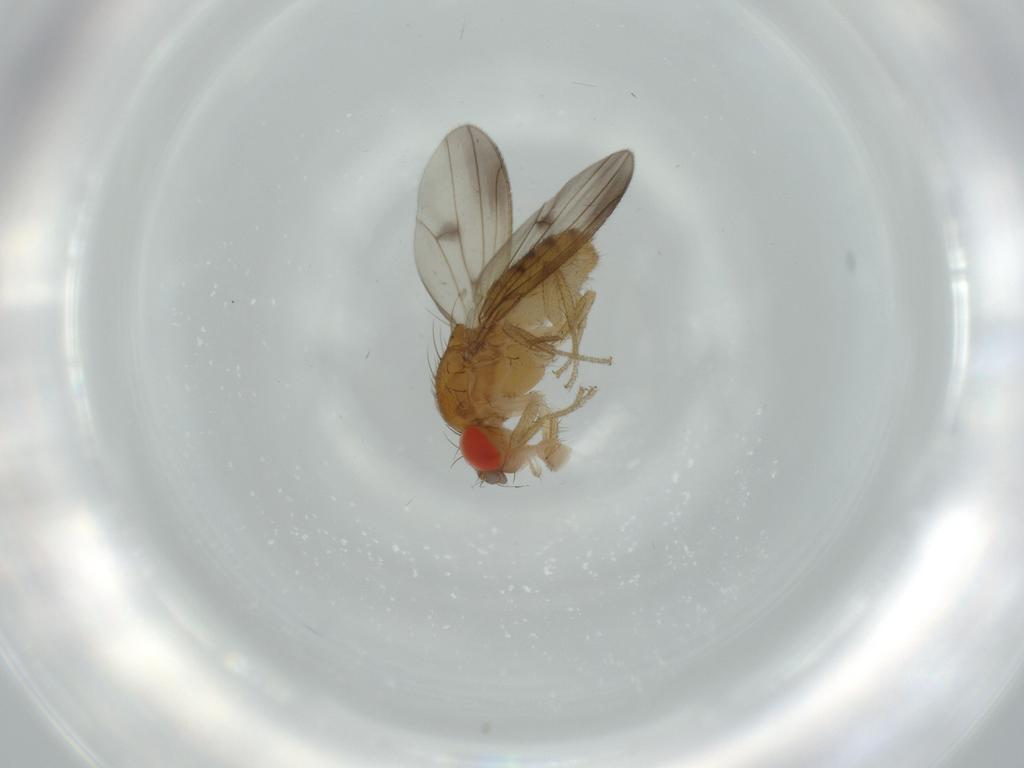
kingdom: Animalia
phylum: Arthropoda
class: Insecta
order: Diptera
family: Drosophilidae
